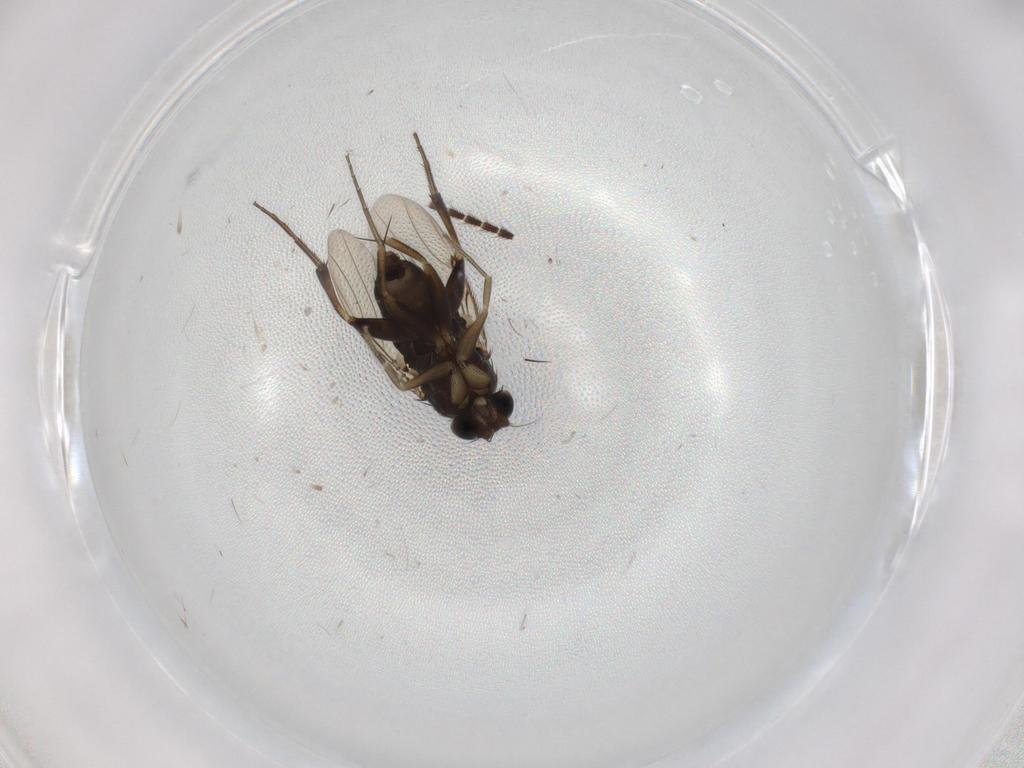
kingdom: Animalia
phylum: Arthropoda
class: Insecta
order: Diptera
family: Phoridae
